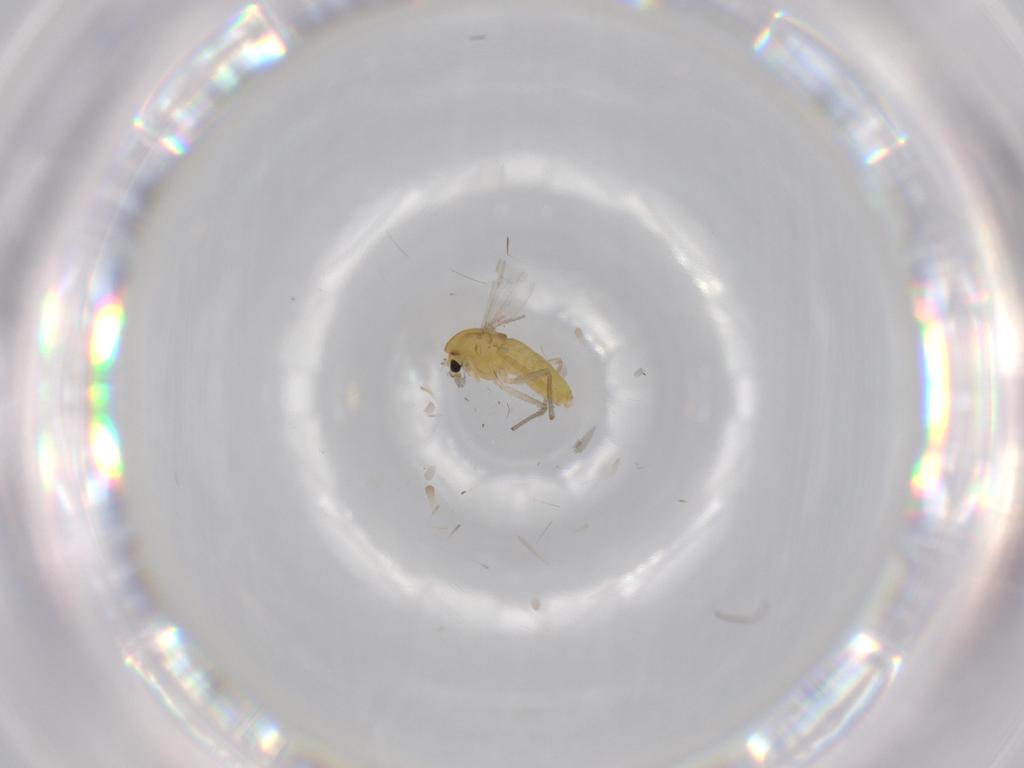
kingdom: Animalia
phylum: Arthropoda
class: Insecta
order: Diptera
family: Chironomidae
